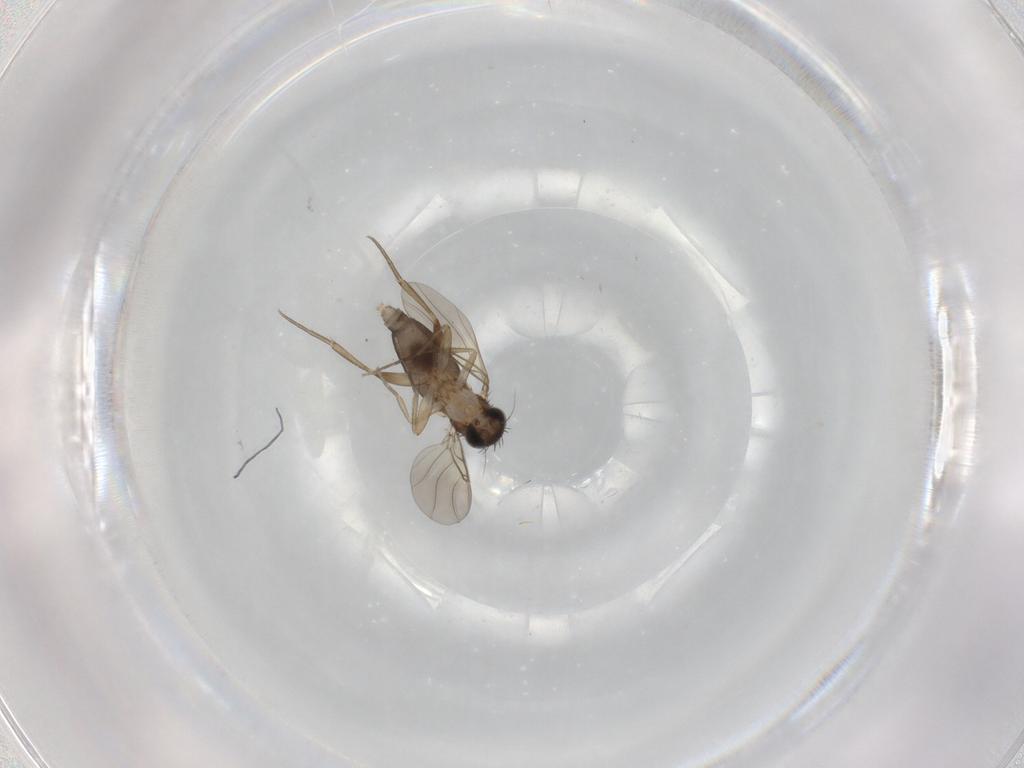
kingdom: Animalia
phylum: Arthropoda
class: Insecta
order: Diptera
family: Phoridae
